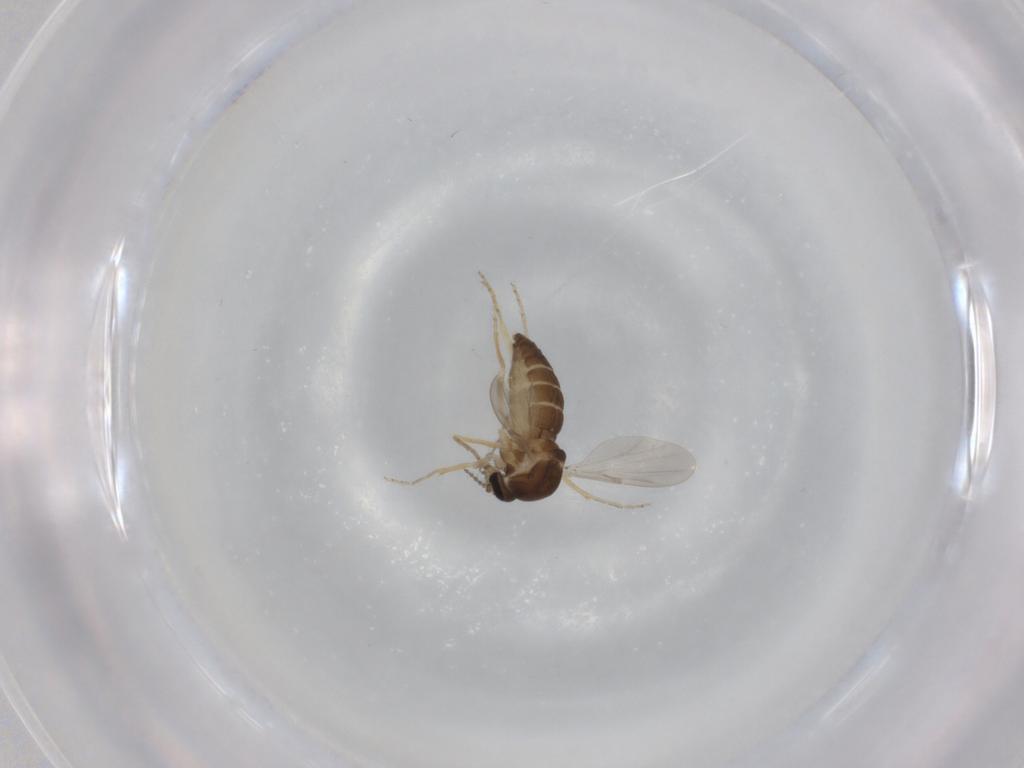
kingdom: Animalia
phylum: Arthropoda
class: Insecta
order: Diptera
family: Ceratopogonidae
